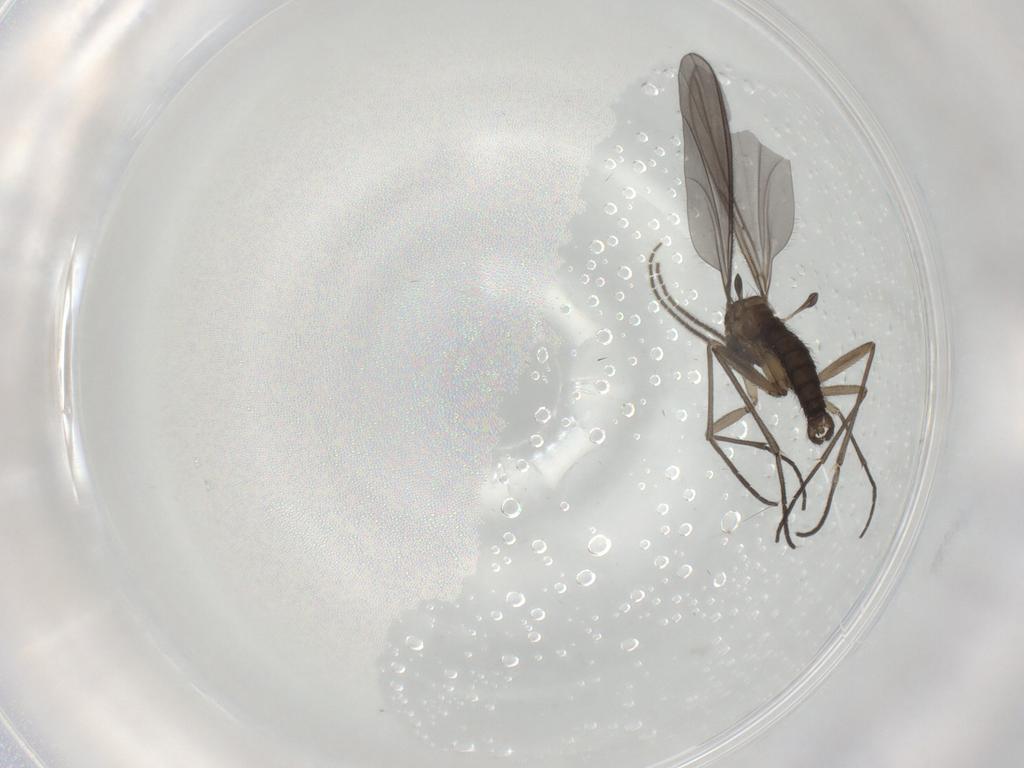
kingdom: Animalia
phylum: Arthropoda
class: Insecta
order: Diptera
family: Sciaridae
